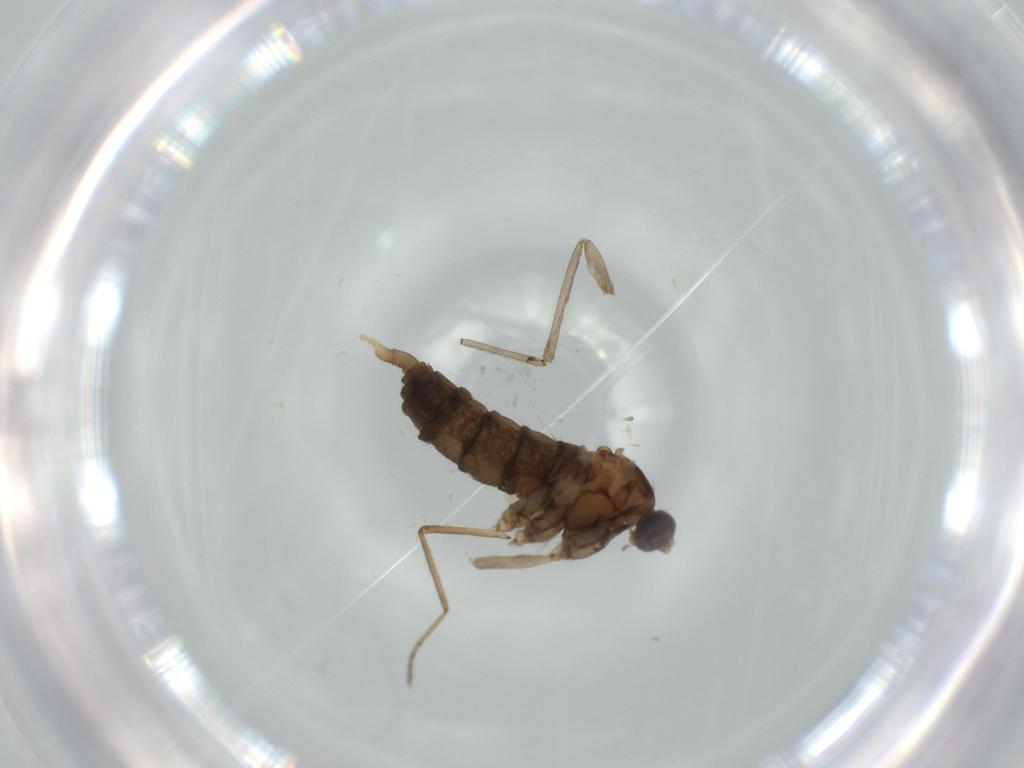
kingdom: Animalia
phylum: Arthropoda
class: Insecta
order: Diptera
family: Cecidomyiidae
